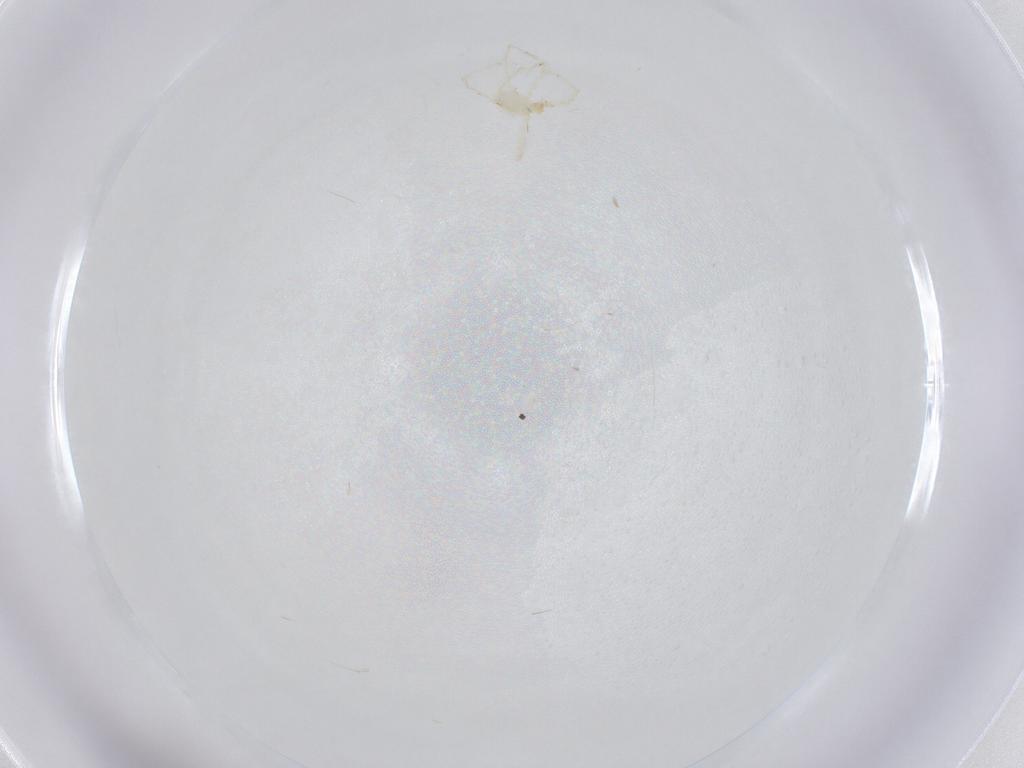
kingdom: Animalia
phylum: Arthropoda
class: Arachnida
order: Trombidiformes
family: Erythraeidae
